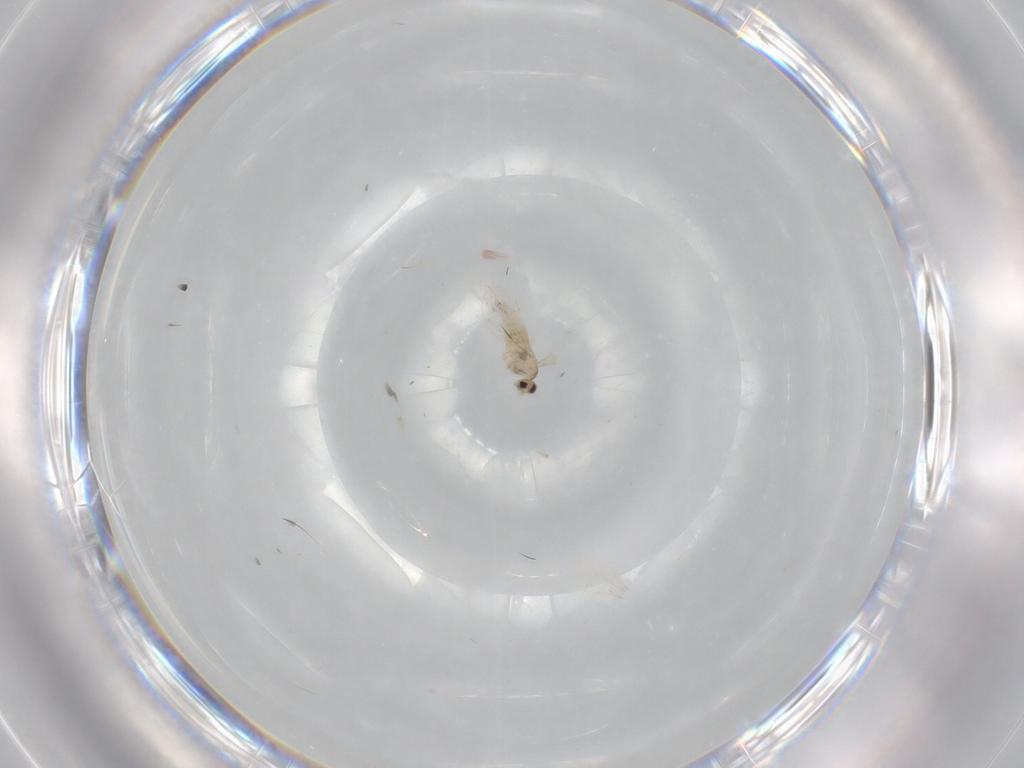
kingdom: Animalia
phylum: Arthropoda
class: Insecta
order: Diptera
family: Cecidomyiidae
